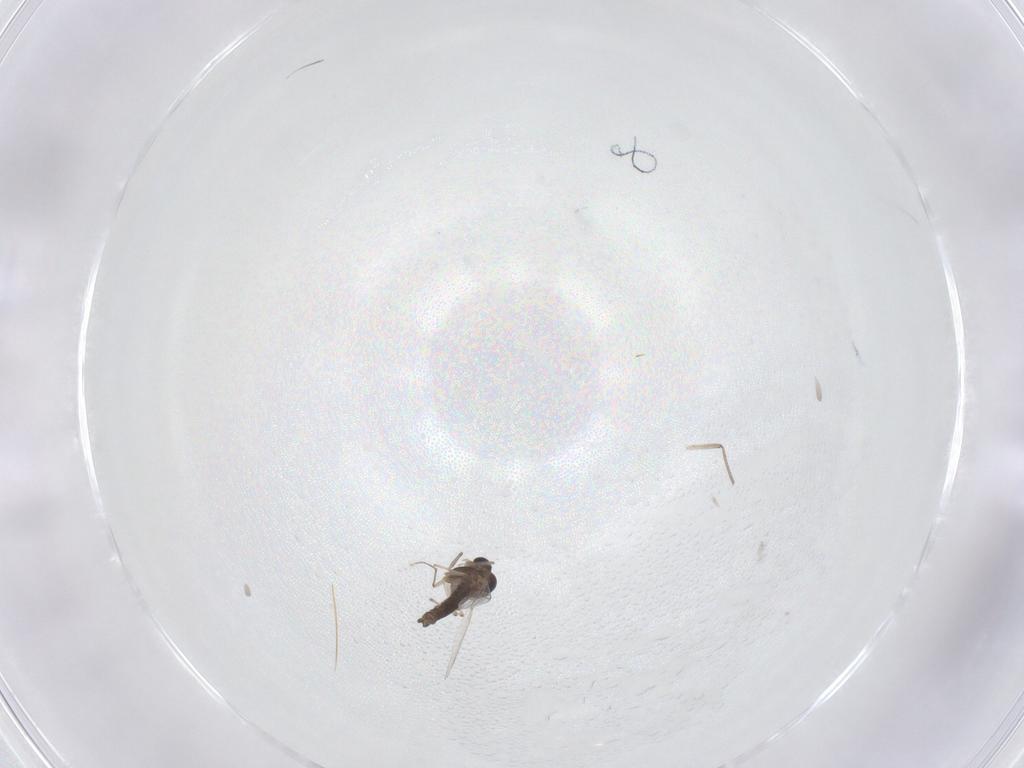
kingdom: Animalia
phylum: Arthropoda
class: Insecta
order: Diptera
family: Chironomidae
